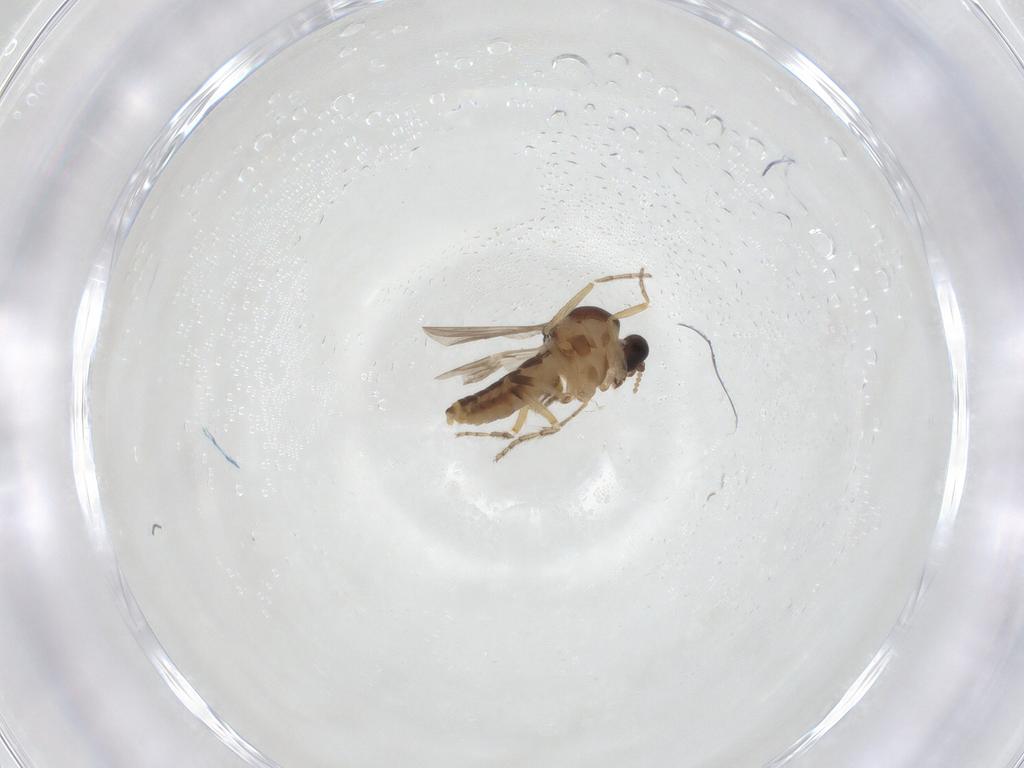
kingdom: Animalia
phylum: Arthropoda
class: Insecta
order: Diptera
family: Ceratopogonidae
